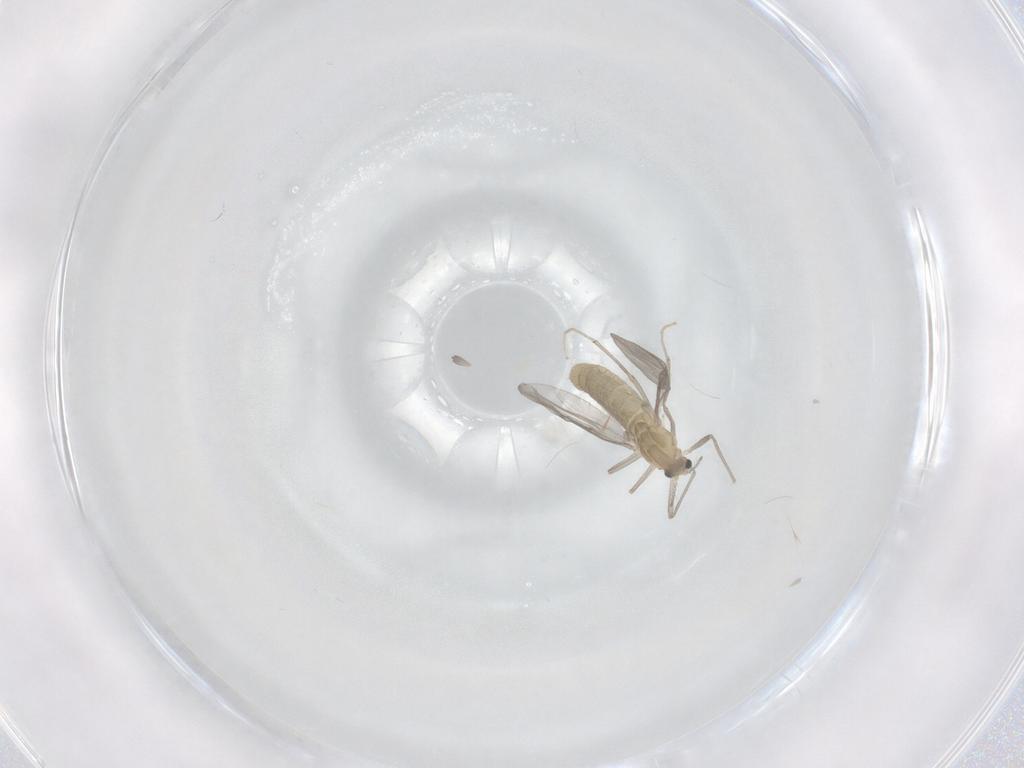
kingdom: Animalia
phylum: Arthropoda
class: Insecta
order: Diptera
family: Chironomidae
